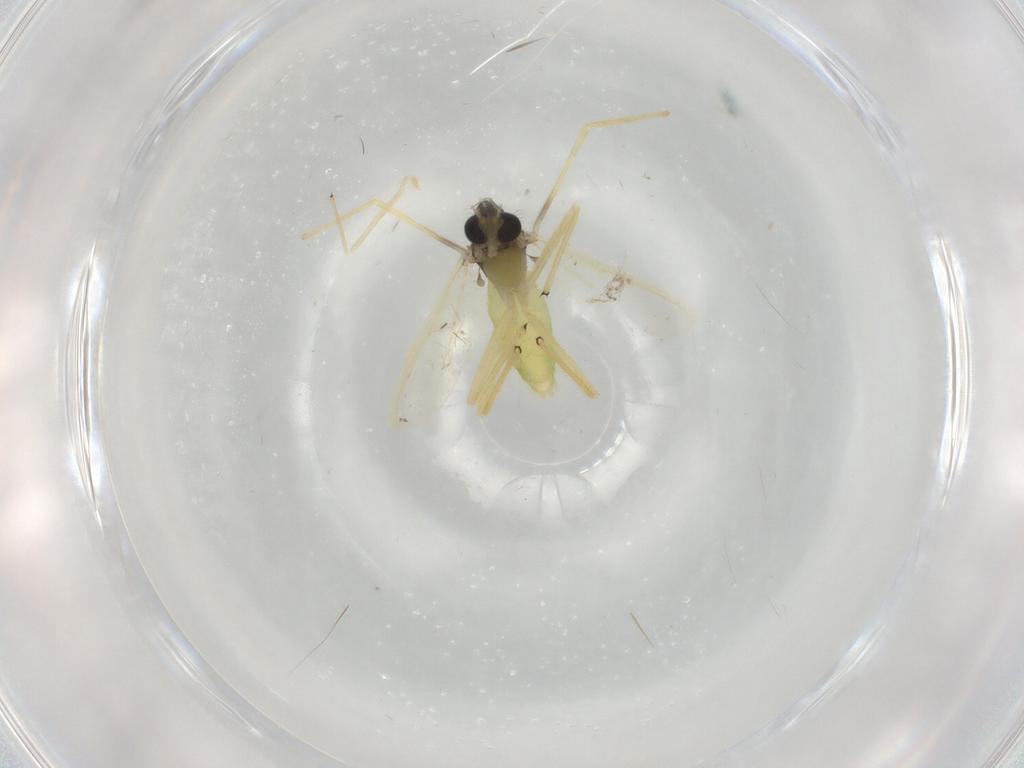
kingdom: Animalia
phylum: Arthropoda
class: Insecta
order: Diptera
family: Chironomidae
